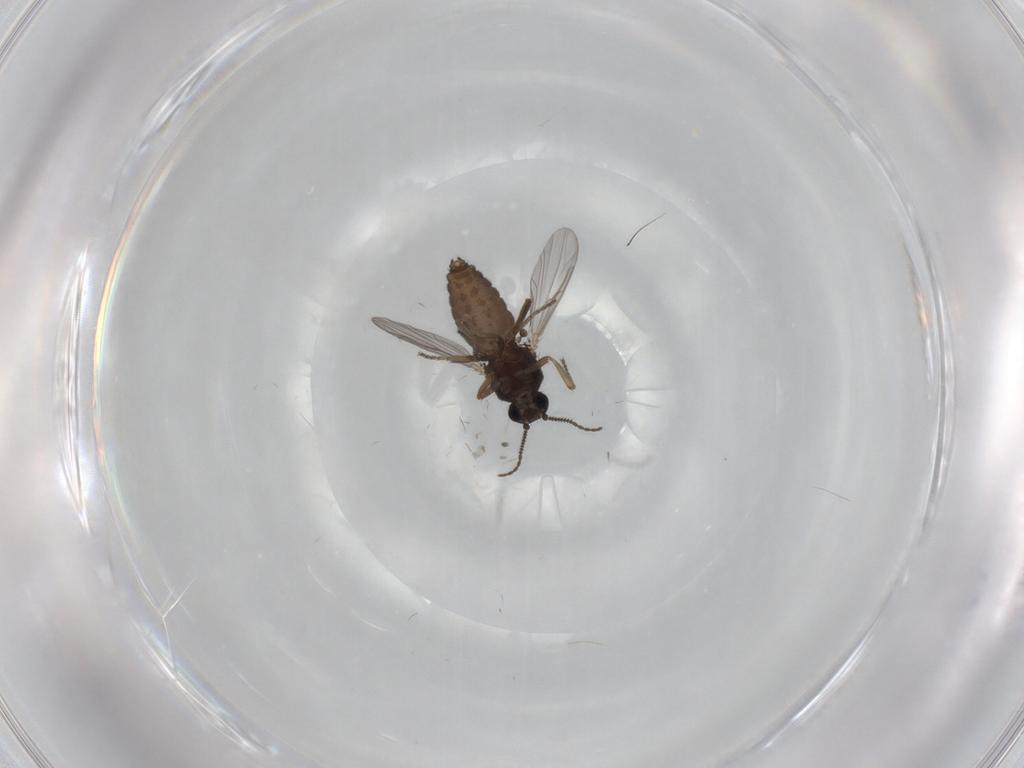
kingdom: Animalia
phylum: Arthropoda
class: Insecta
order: Diptera
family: Ceratopogonidae
